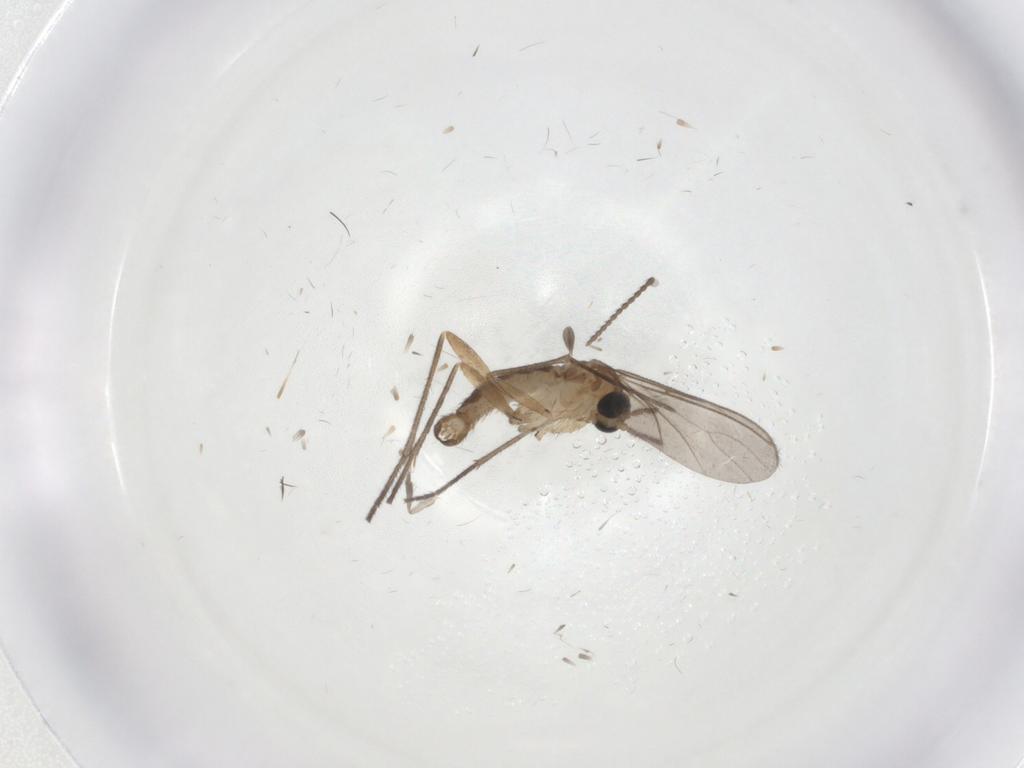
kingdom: Animalia
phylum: Arthropoda
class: Insecta
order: Diptera
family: Sciaridae
